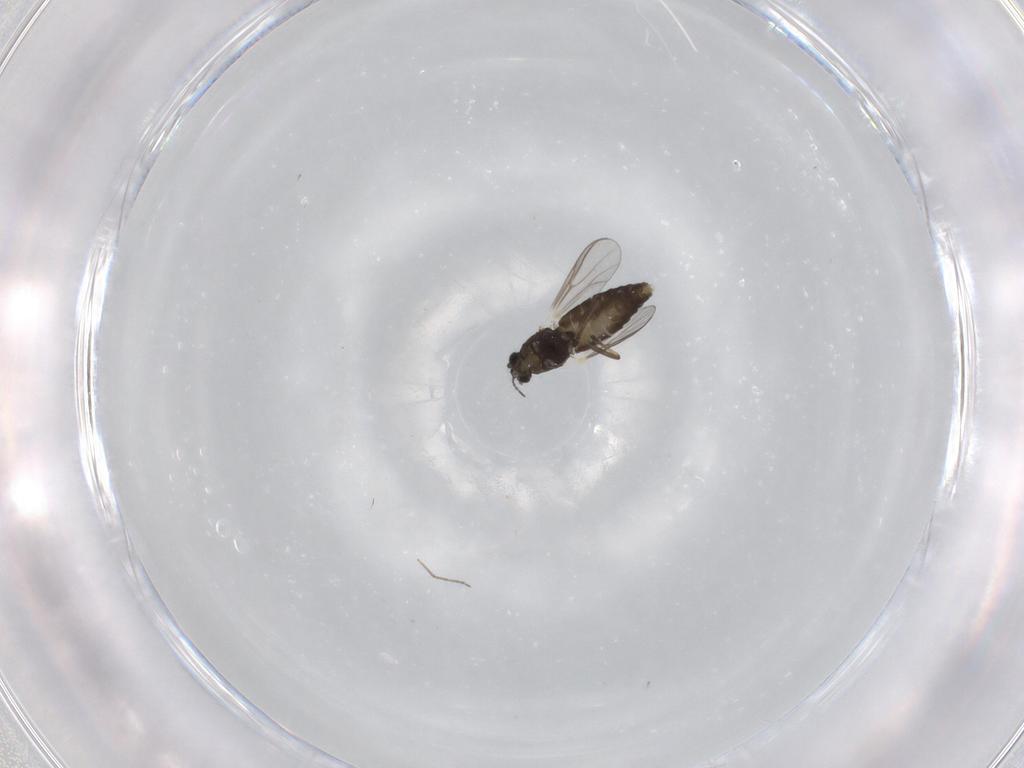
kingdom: Animalia
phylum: Arthropoda
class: Insecta
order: Diptera
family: Chironomidae
